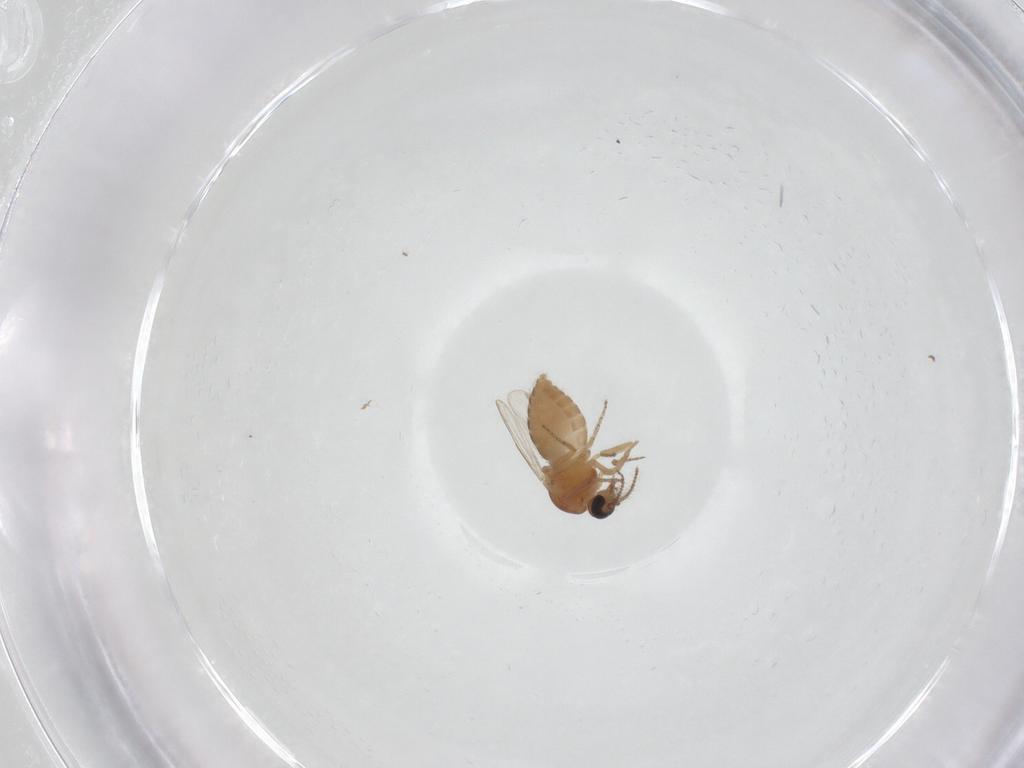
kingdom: Animalia
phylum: Arthropoda
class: Insecta
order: Diptera
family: Ceratopogonidae
